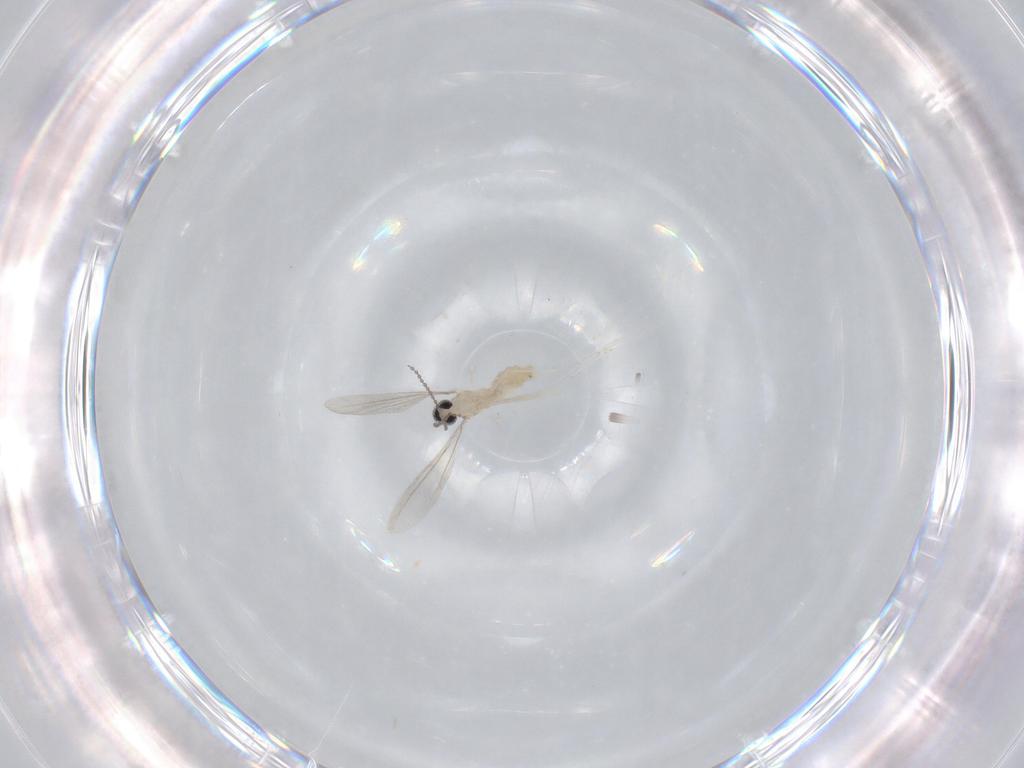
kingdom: Animalia
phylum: Arthropoda
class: Insecta
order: Diptera
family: Cecidomyiidae
